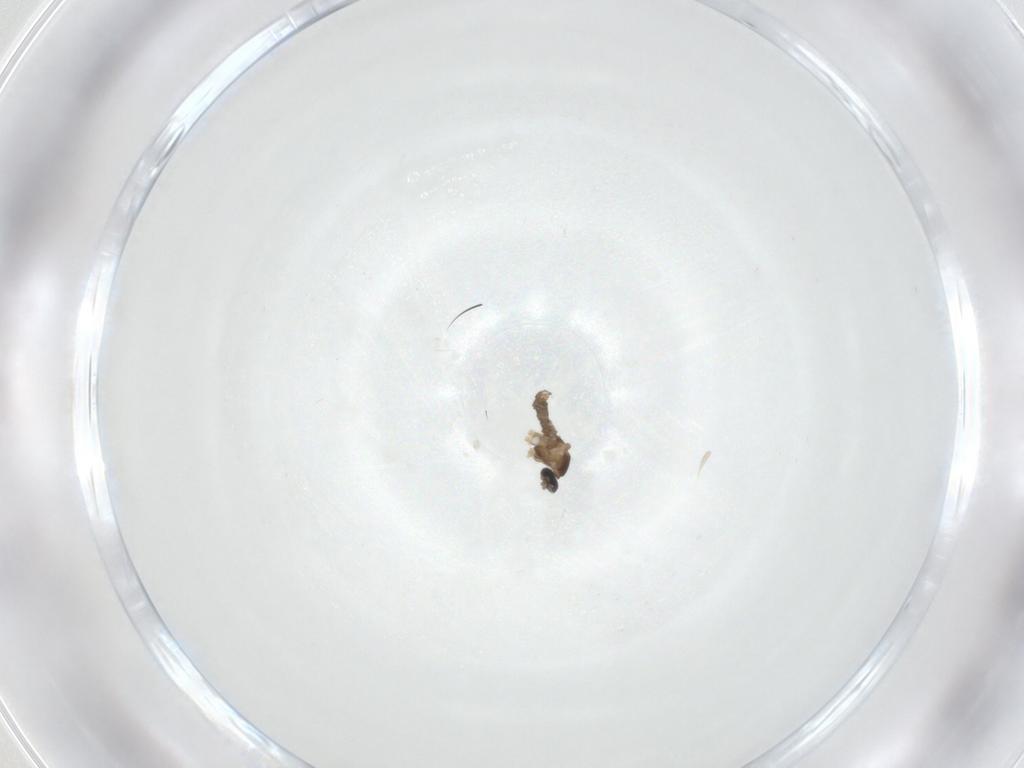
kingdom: Animalia
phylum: Arthropoda
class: Insecta
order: Diptera
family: Cecidomyiidae
